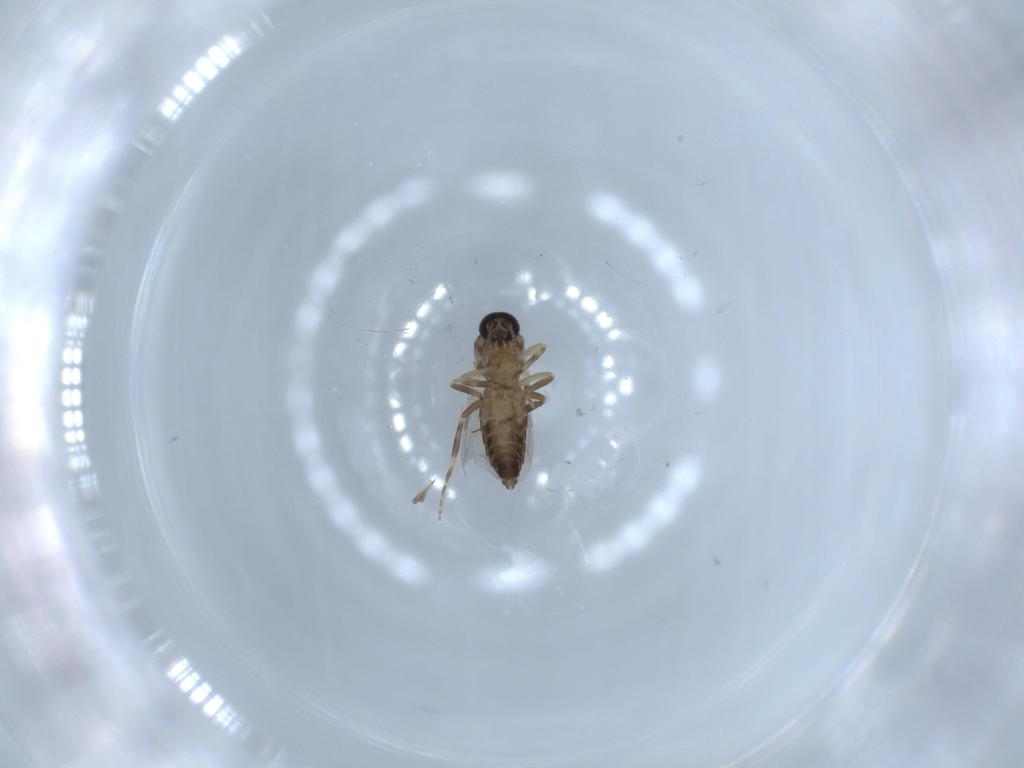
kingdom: Animalia
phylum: Arthropoda
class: Insecta
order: Diptera
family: Ceratopogonidae
